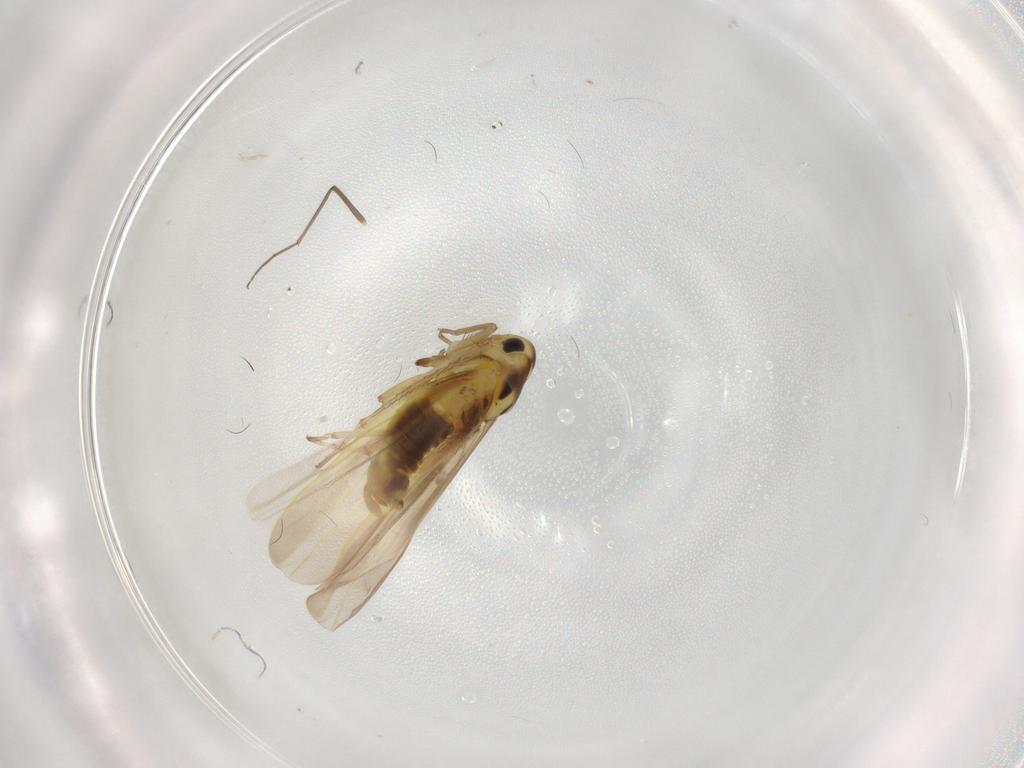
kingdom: Animalia
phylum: Arthropoda
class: Insecta
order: Hemiptera
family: Cicadellidae
